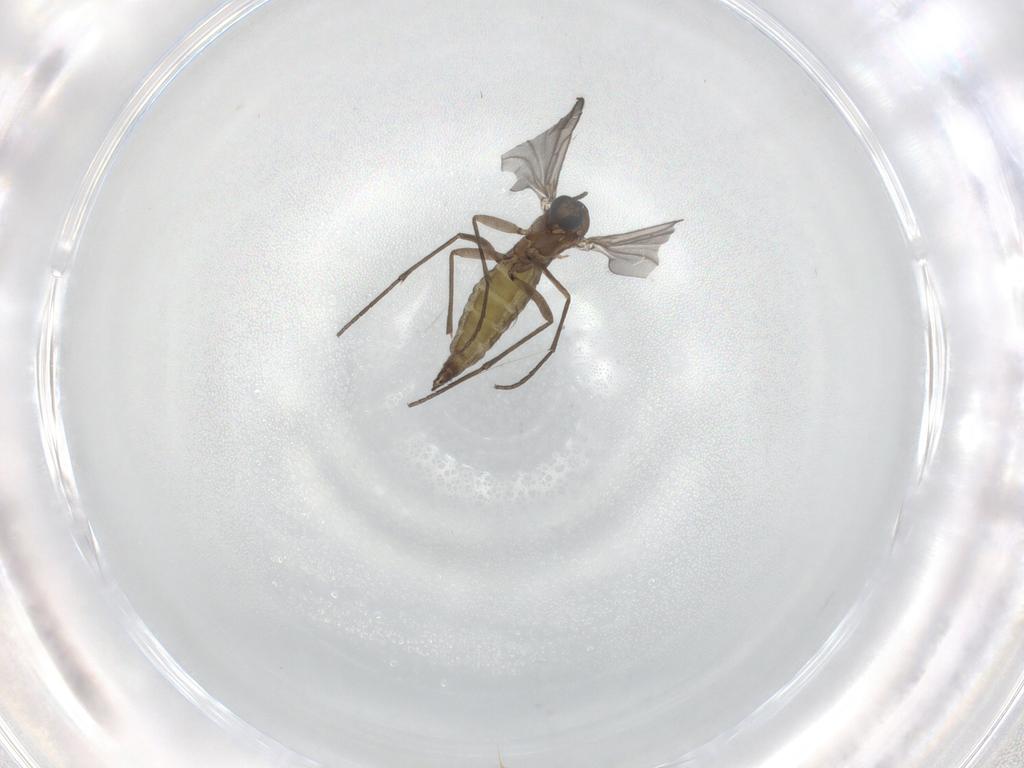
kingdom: Animalia
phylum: Arthropoda
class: Insecta
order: Diptera
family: Sciaridae
